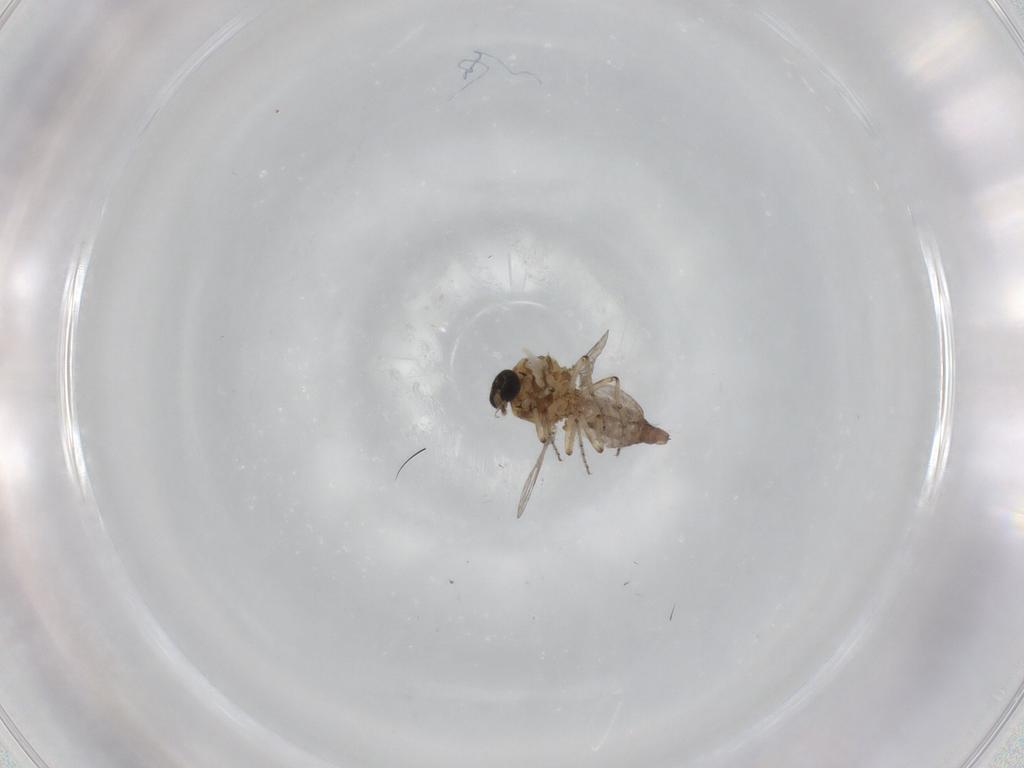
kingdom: Animalia
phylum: Arthropoda
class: Insecta
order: Diptera
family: Ceratopogonidae
